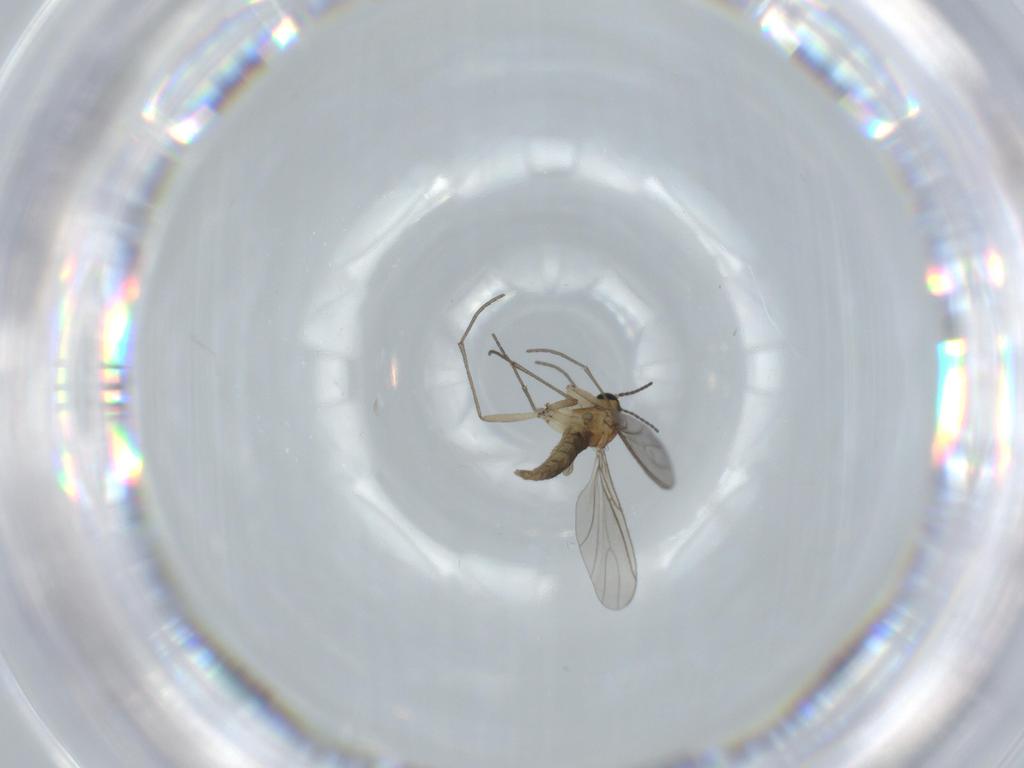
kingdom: Animalia
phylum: Arthropoda
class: Insecta
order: Diptera
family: Sciaridae
